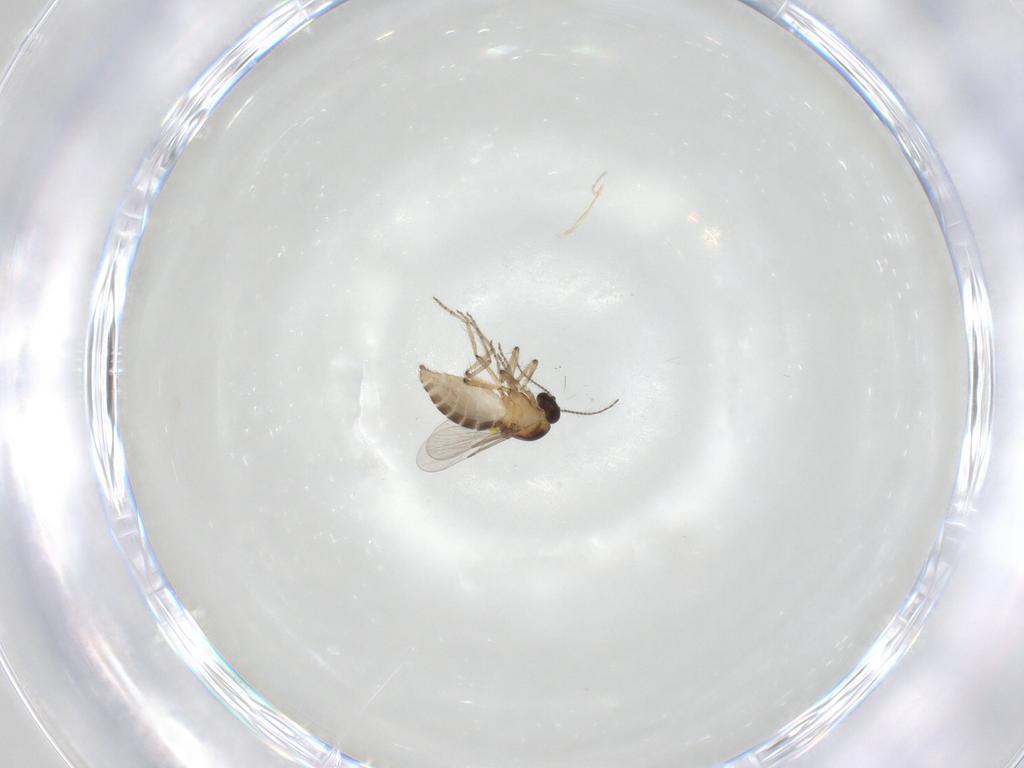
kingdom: Animalia
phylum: Arthropoda
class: Insecta
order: Diptera
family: Ceratopogonidae
